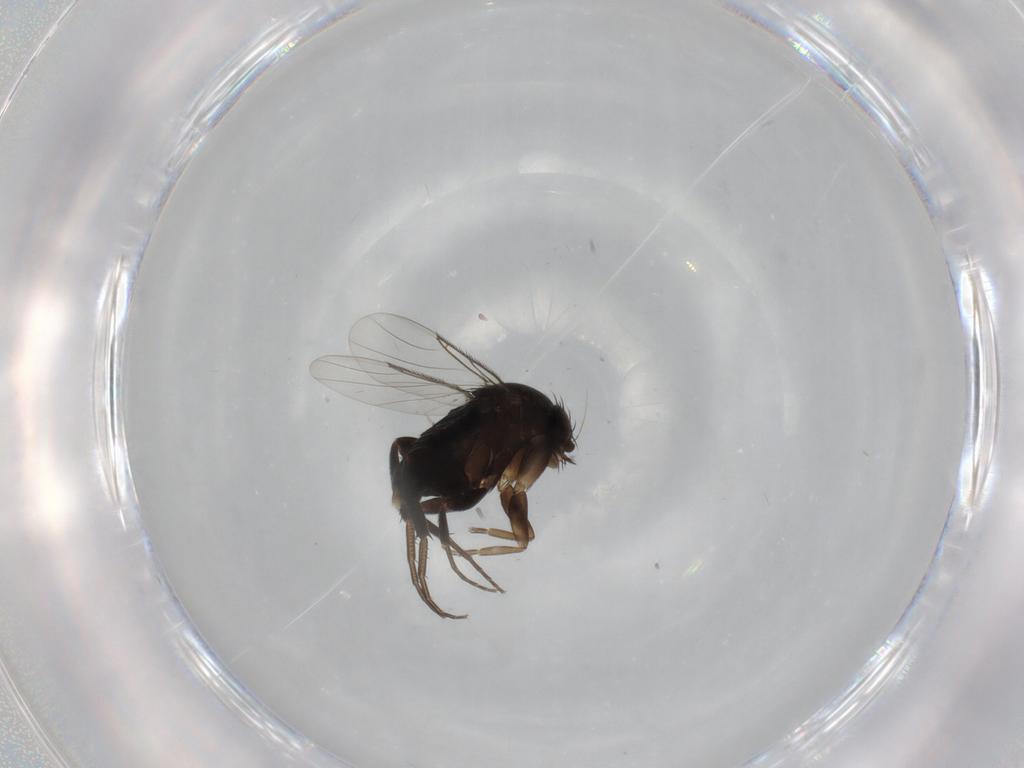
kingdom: Animalia
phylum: Arthropoda
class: Insecta
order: Diptera
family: Phoridae
